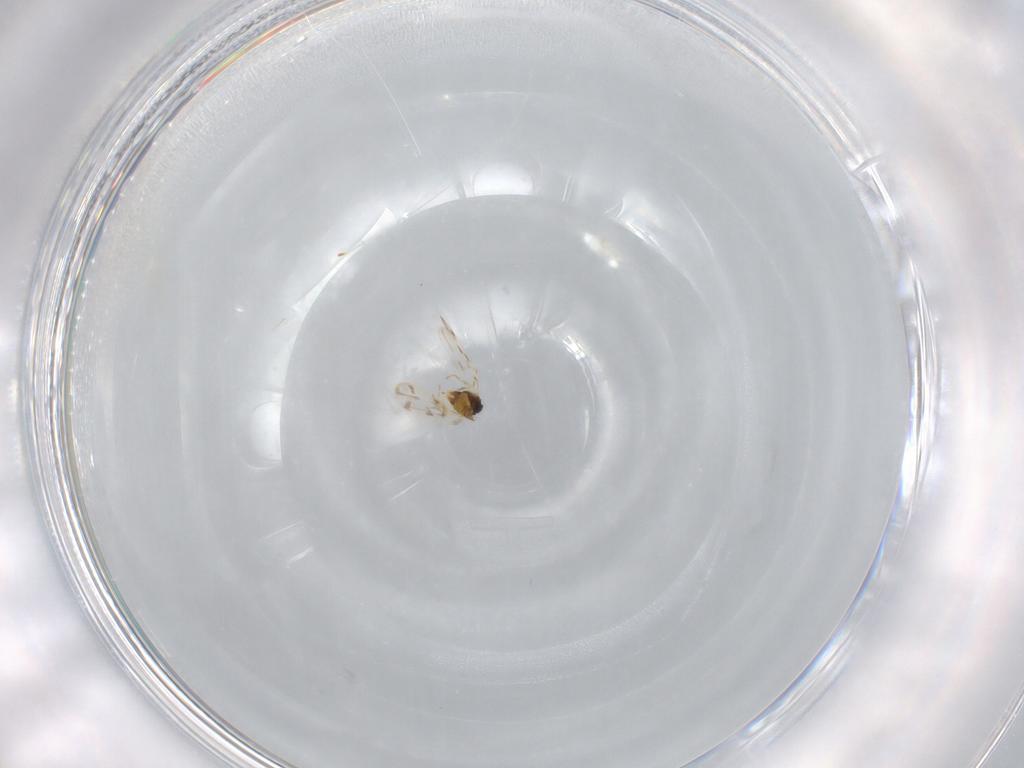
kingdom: Animalia
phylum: Arthropoda
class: Insecta
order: Hemiptera
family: Aleyrodidae
